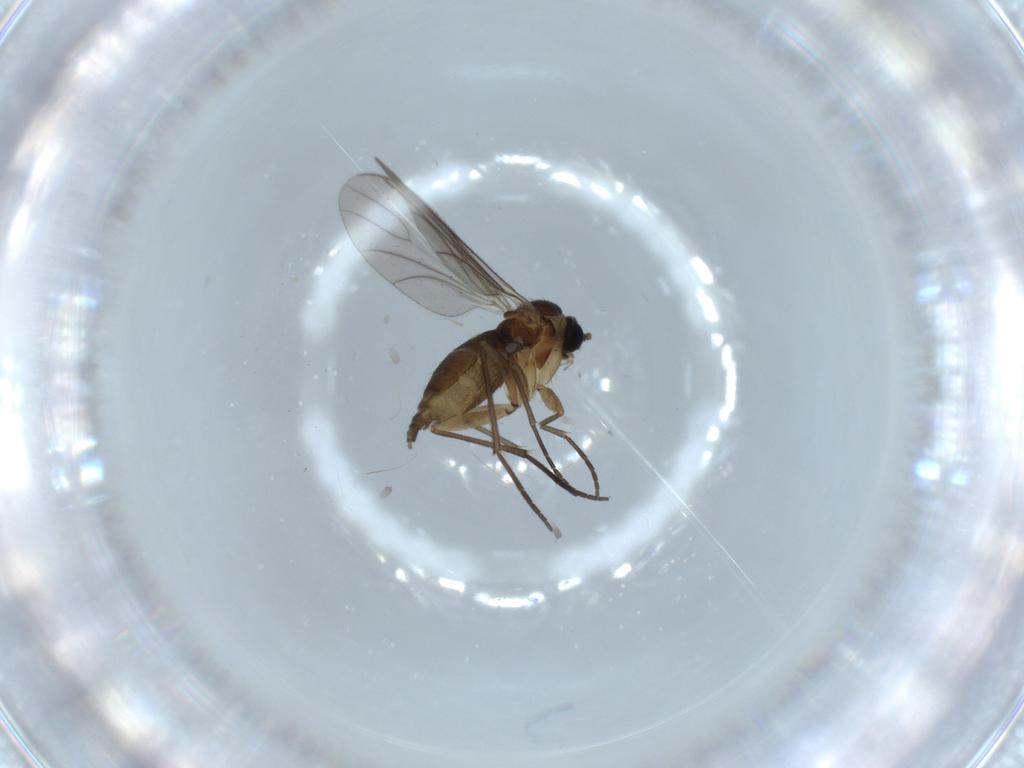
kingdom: Animalia
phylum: Arthropoda
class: Insecta
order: Diptera
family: Sciaridae
